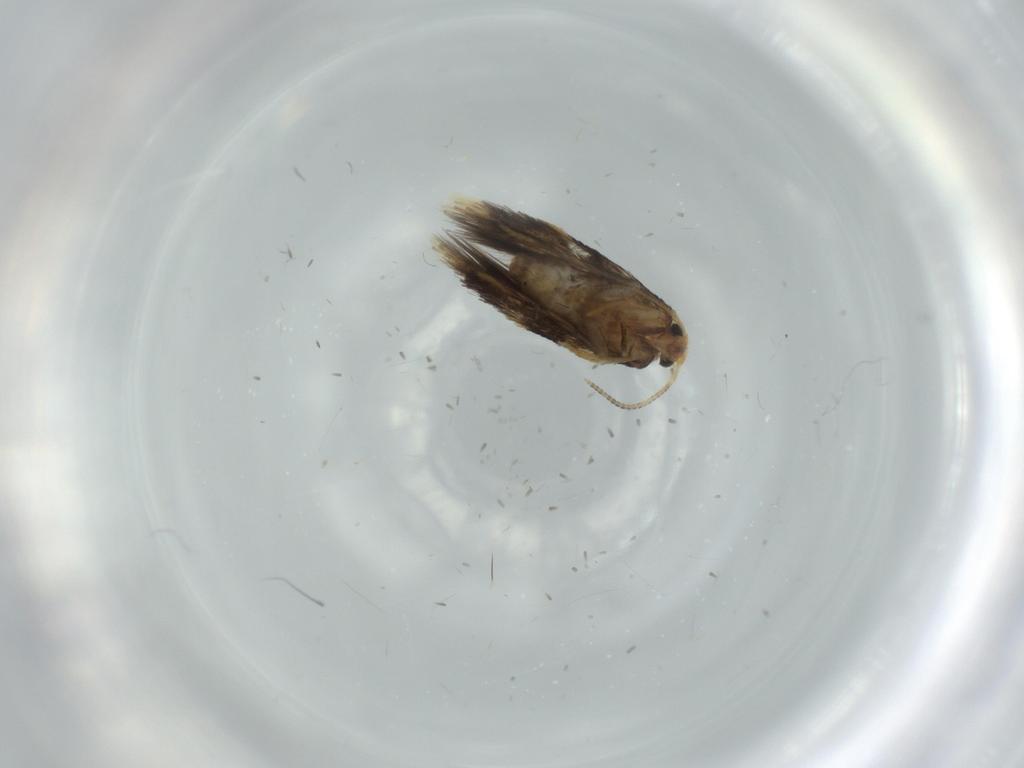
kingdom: Animalia
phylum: Arthropoda
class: Insecta
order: Lepidoptera
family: Nepticulidae
